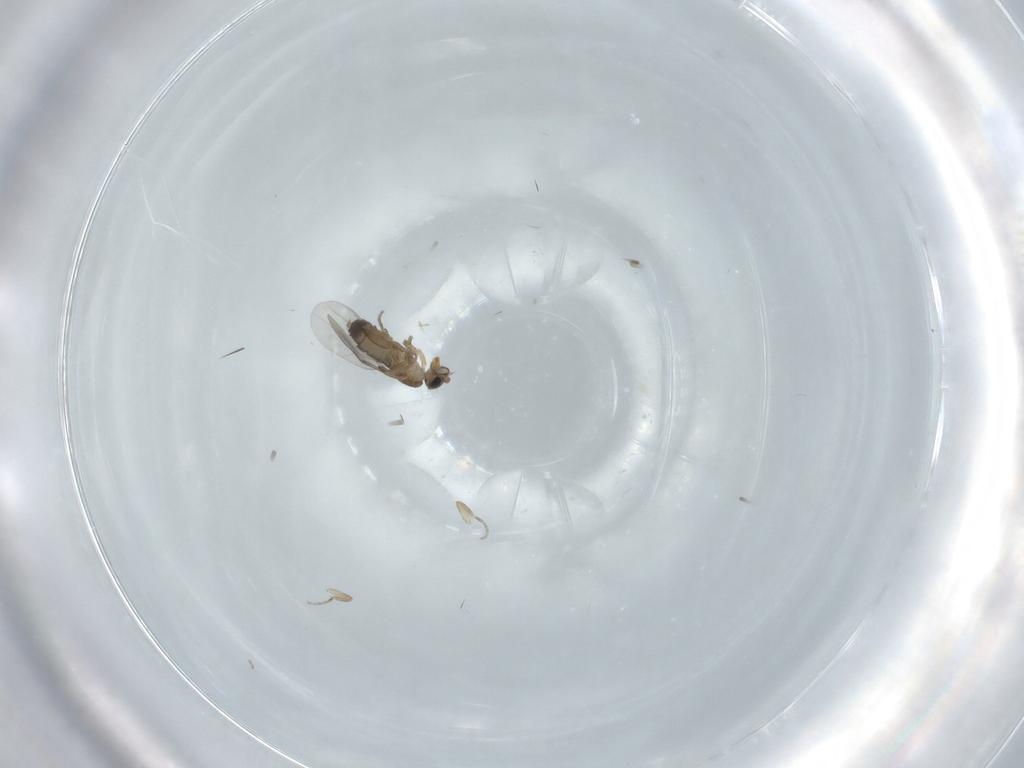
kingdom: Animalia
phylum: Arthropoda
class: Insecta
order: Diptera
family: Phoridae
